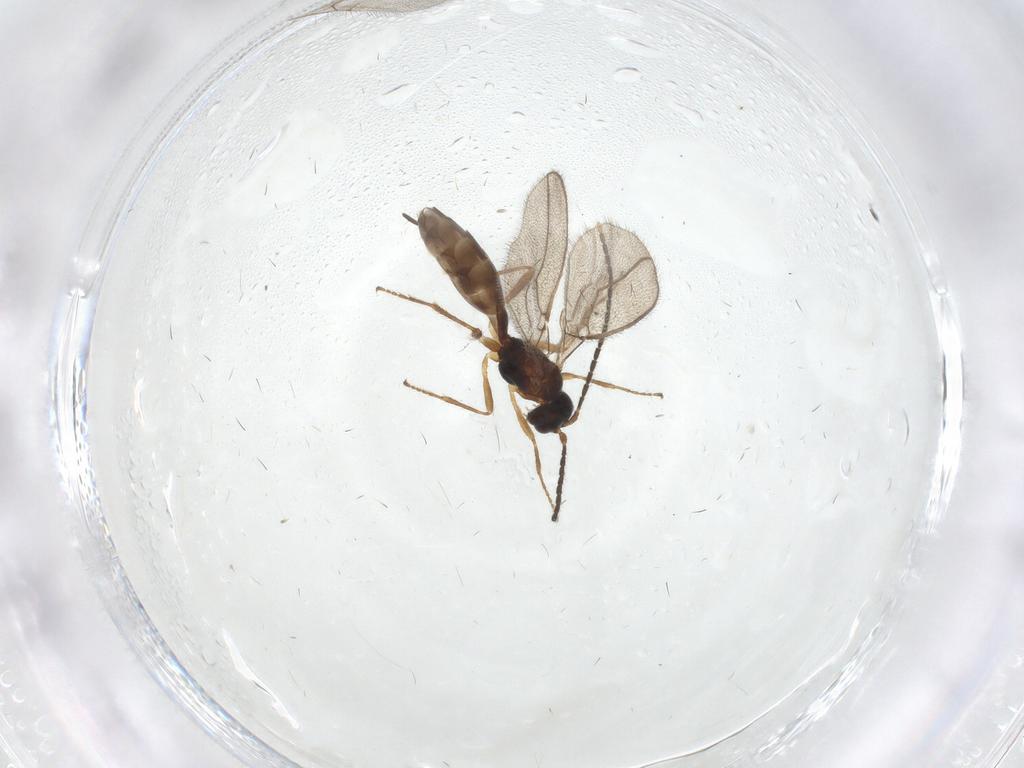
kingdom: Animalia
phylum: Arthropoda
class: Insecta
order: Hymenoptera
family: Braconidae
